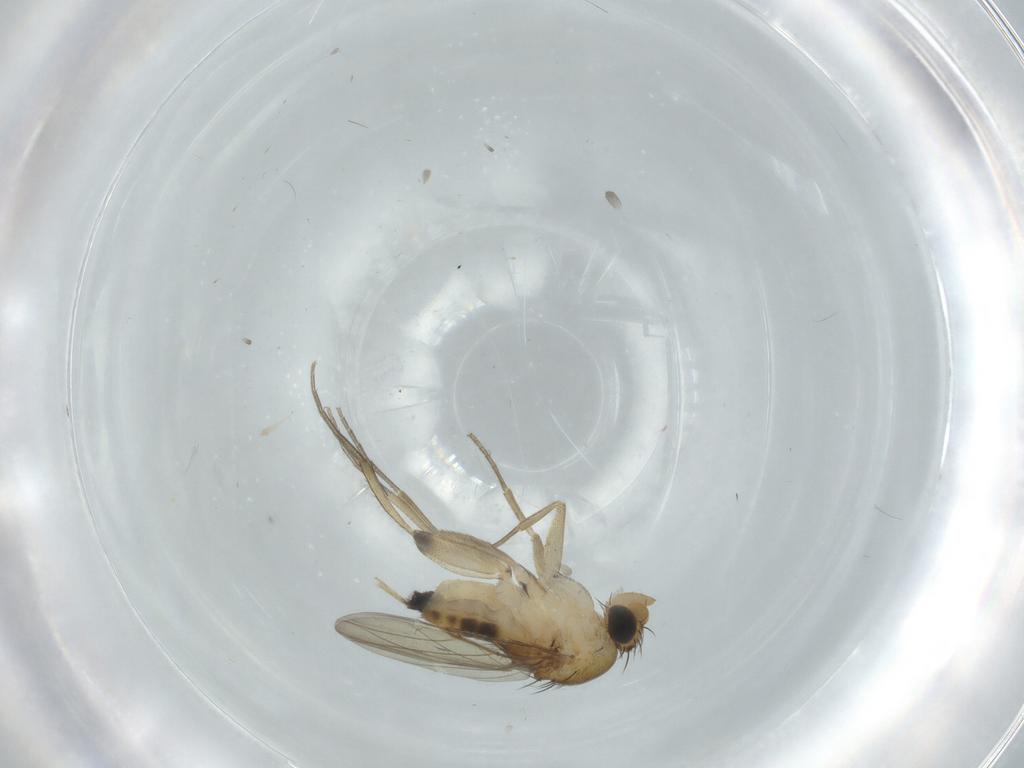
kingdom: Animalia
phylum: Arthropoda
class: Insecta
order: Diptera
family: Phoridae
